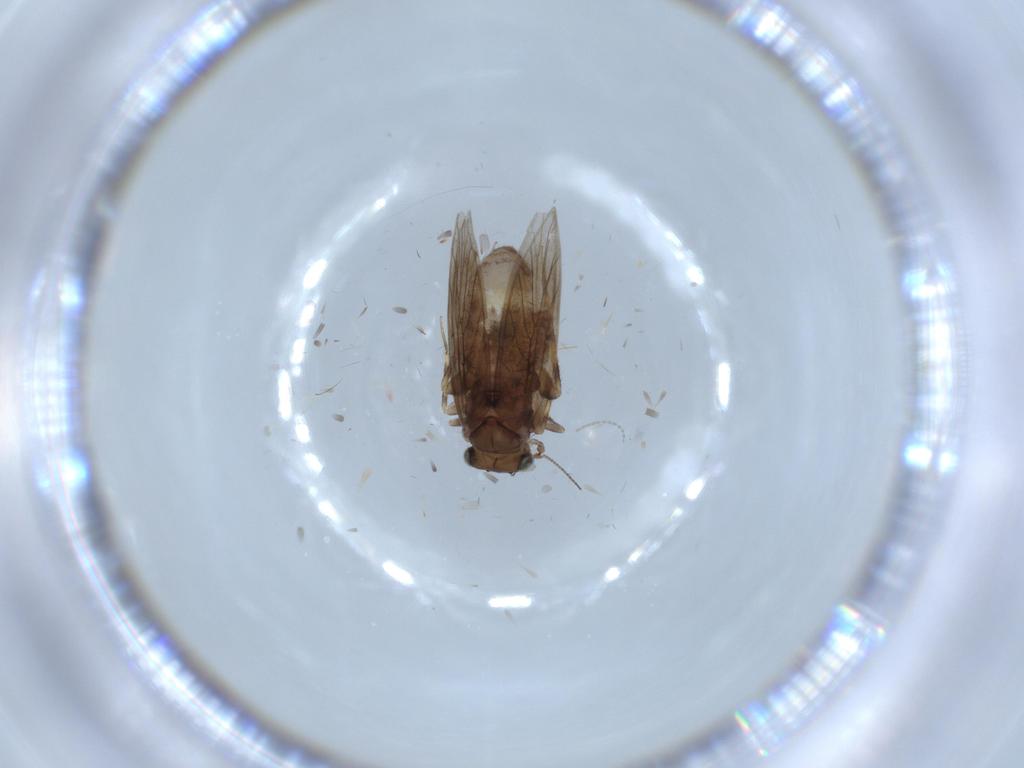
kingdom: Animalia
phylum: Arthropoda
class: Insecta
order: Psocodea
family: Lepidopsocidae
